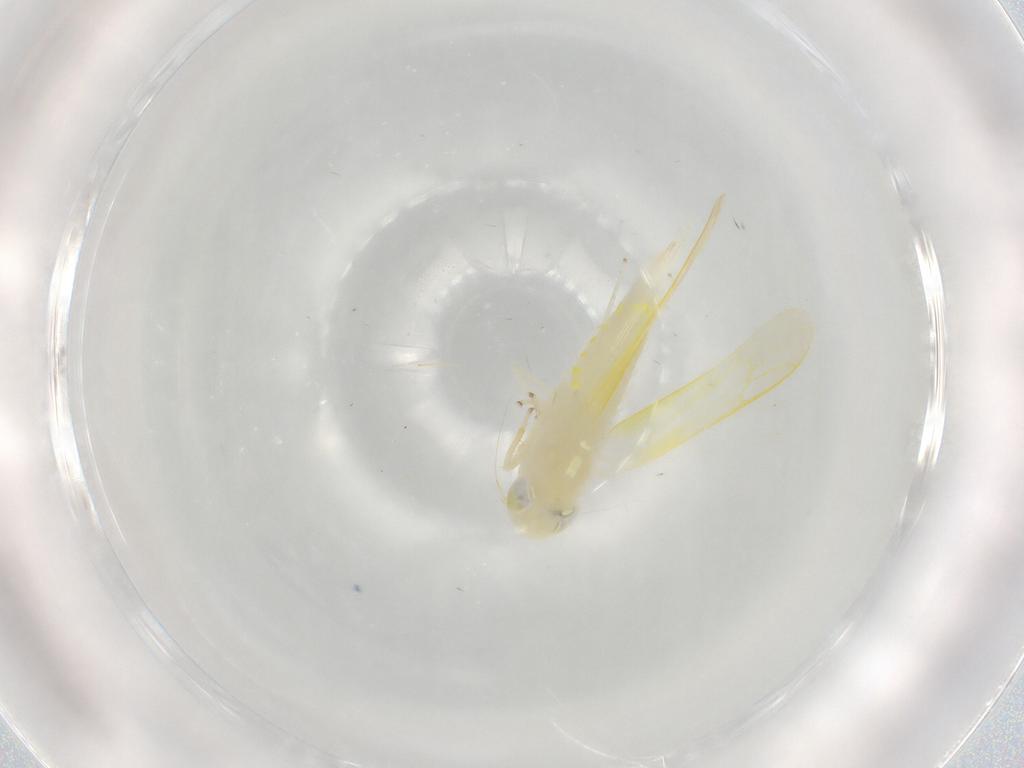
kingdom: Animalia
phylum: Arthropoda
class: Insecta
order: Hemiptera
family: Cicadellidae
